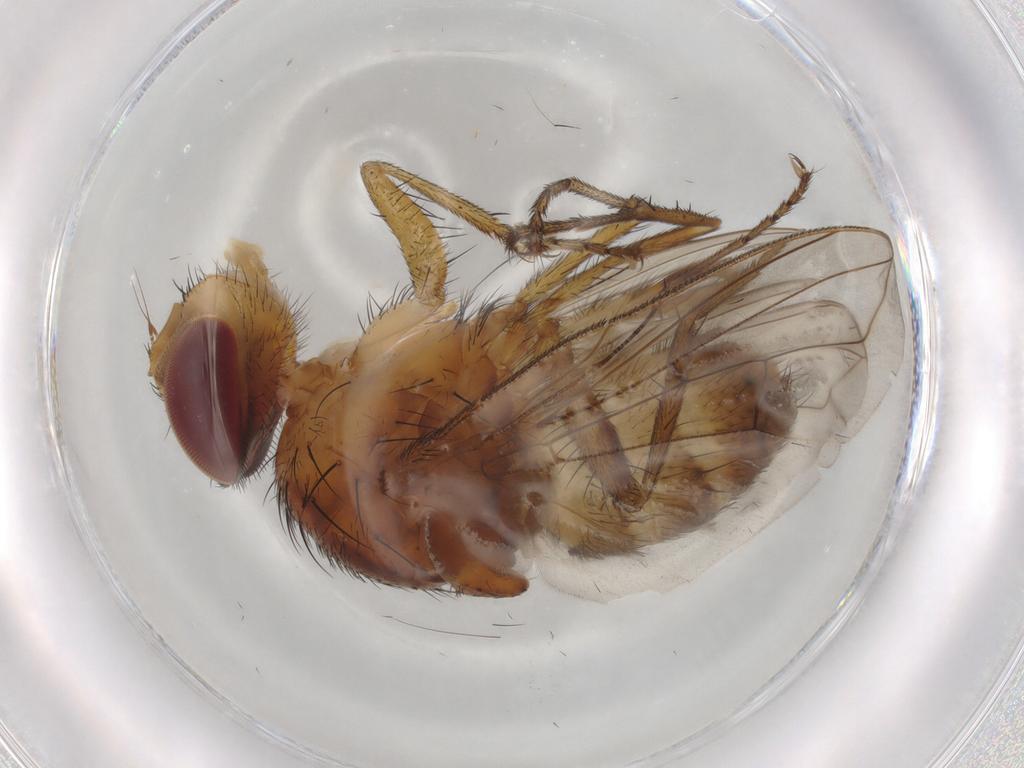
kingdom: Animalia
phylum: Arthropoda
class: Insecta
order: Diptera
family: Tachinidae
